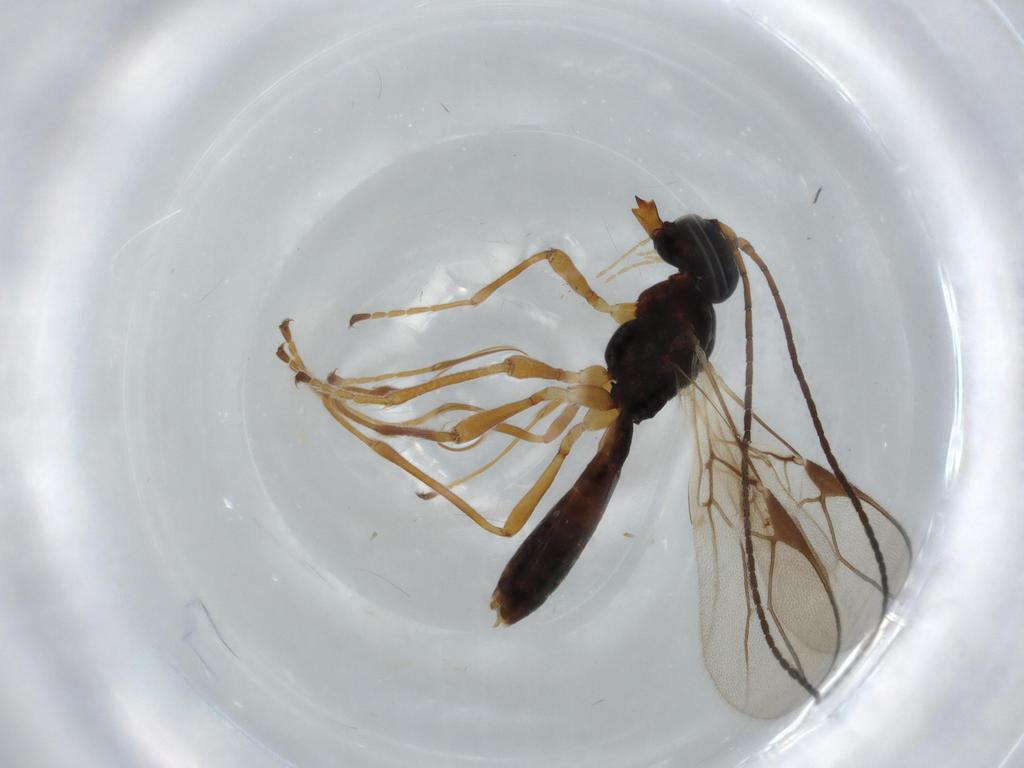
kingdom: Animalia
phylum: Arthropoda
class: Insecta
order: Hymenoptera
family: Braconidae
